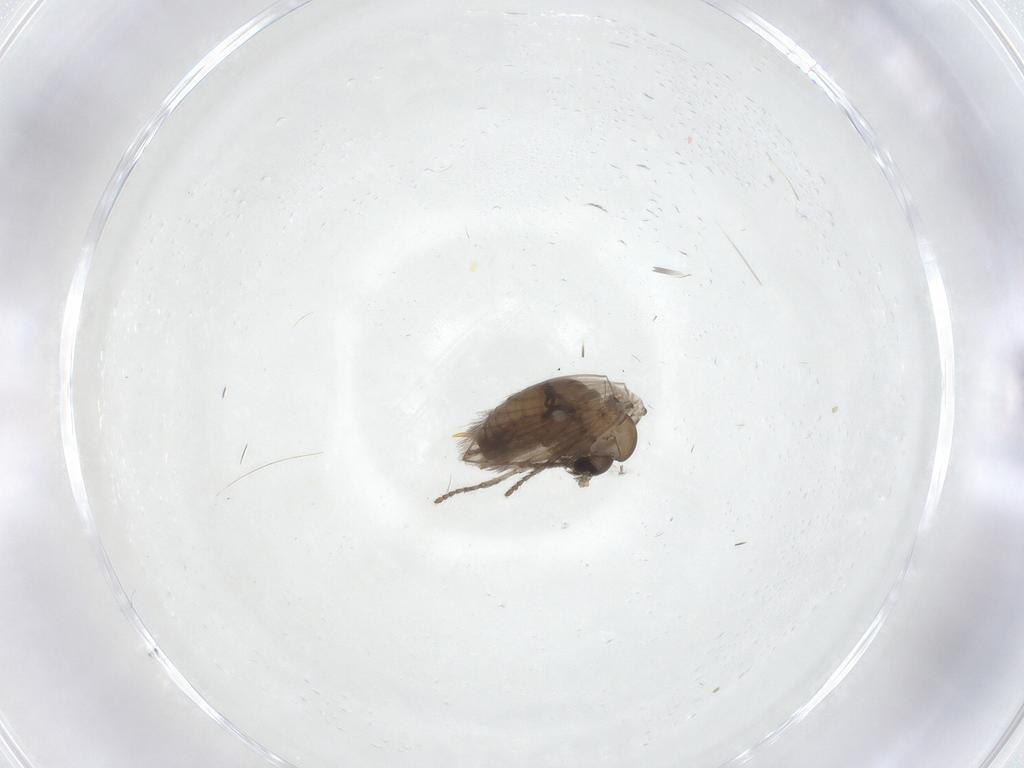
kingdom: Animalia
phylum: Arthropoda
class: Insecta
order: Diptera
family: Psychodidae
